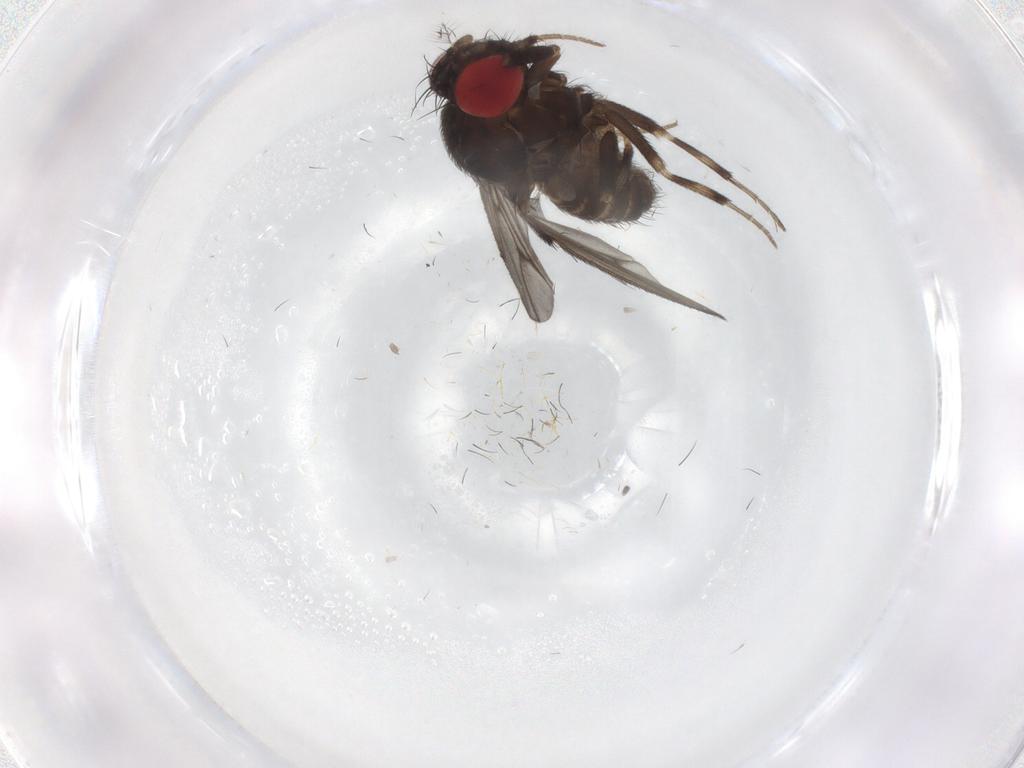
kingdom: Animalia
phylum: Arthropoda
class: Insecta
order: Diptera
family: Drosophilidae
